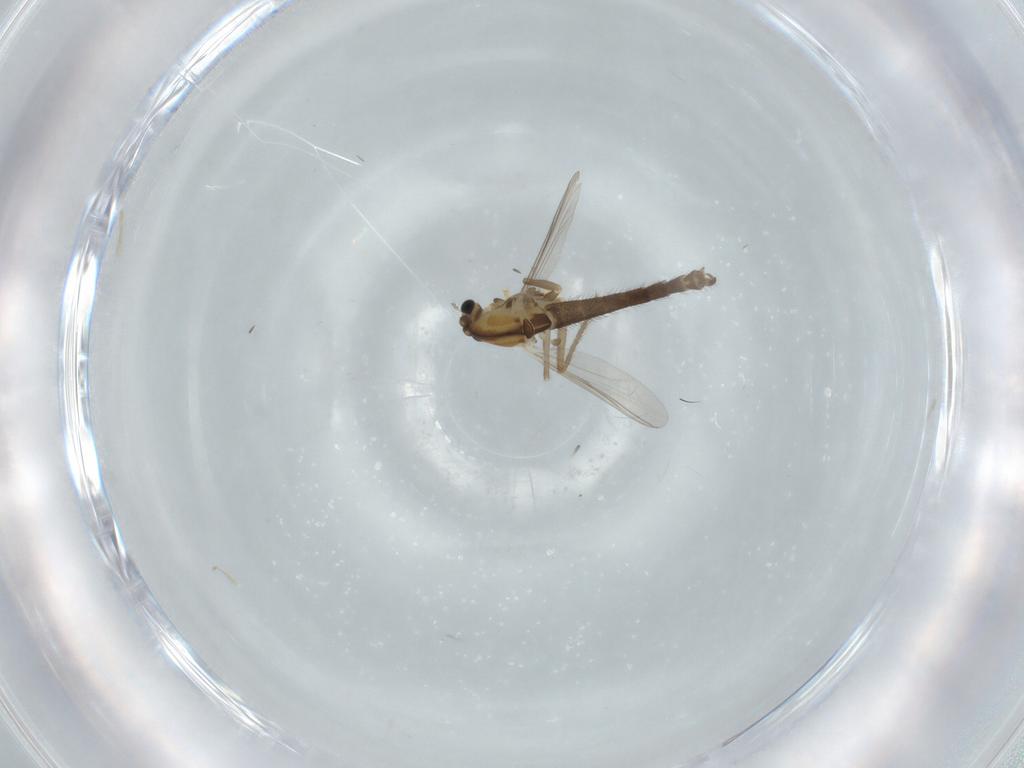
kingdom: Animalia
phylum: Arthropoda
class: Insecta
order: Diptera
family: Chironomidae
